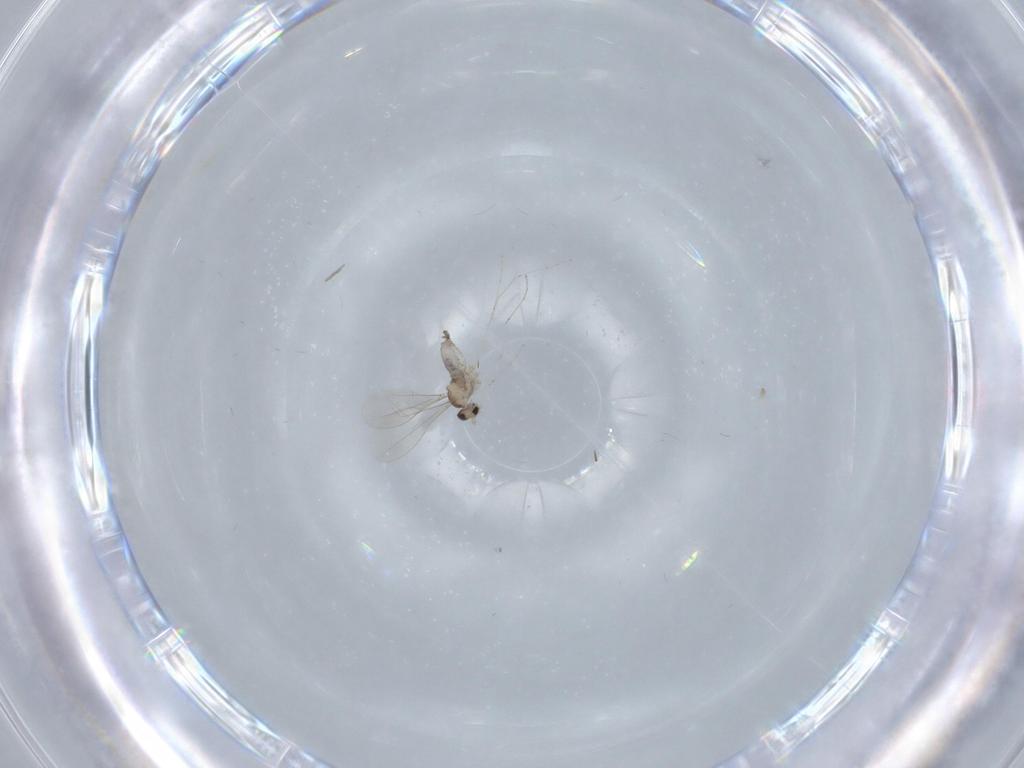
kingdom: Animalia
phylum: Arthropoda
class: Insecta
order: Diptera
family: Cecidomyiidae
